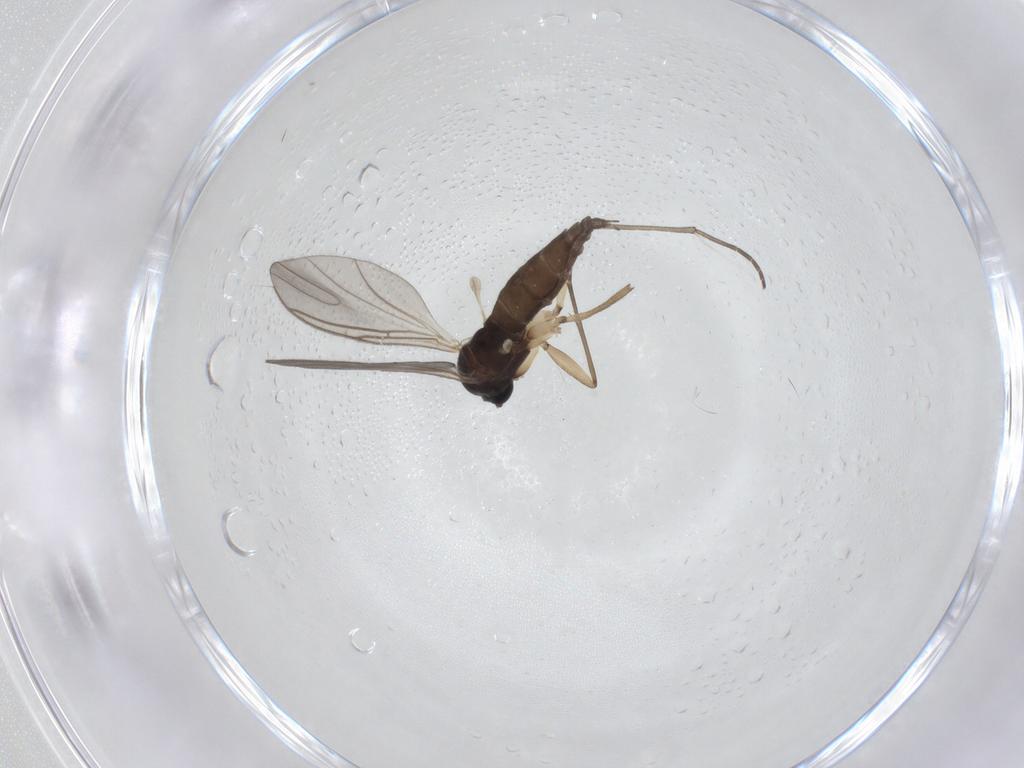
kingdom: Animalia
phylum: Arthropoda
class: Insecta
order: Diptera
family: Sciaridae
